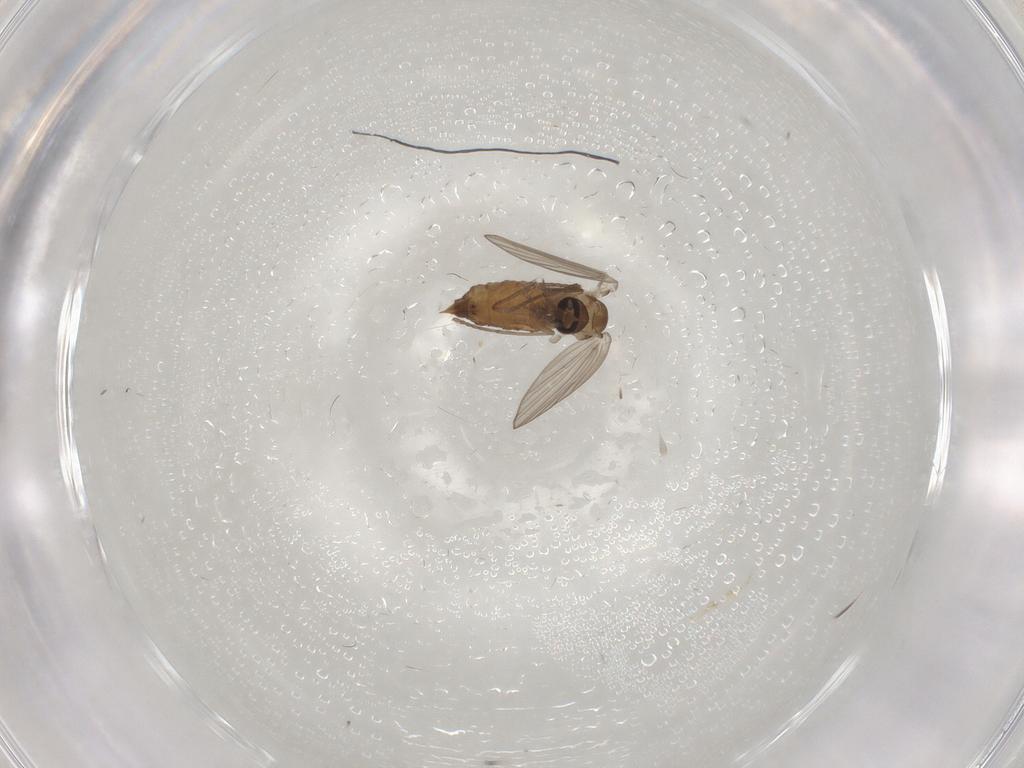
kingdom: Animalia
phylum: Arthropoda
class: Insecta
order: Diptera
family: Psychodidae
